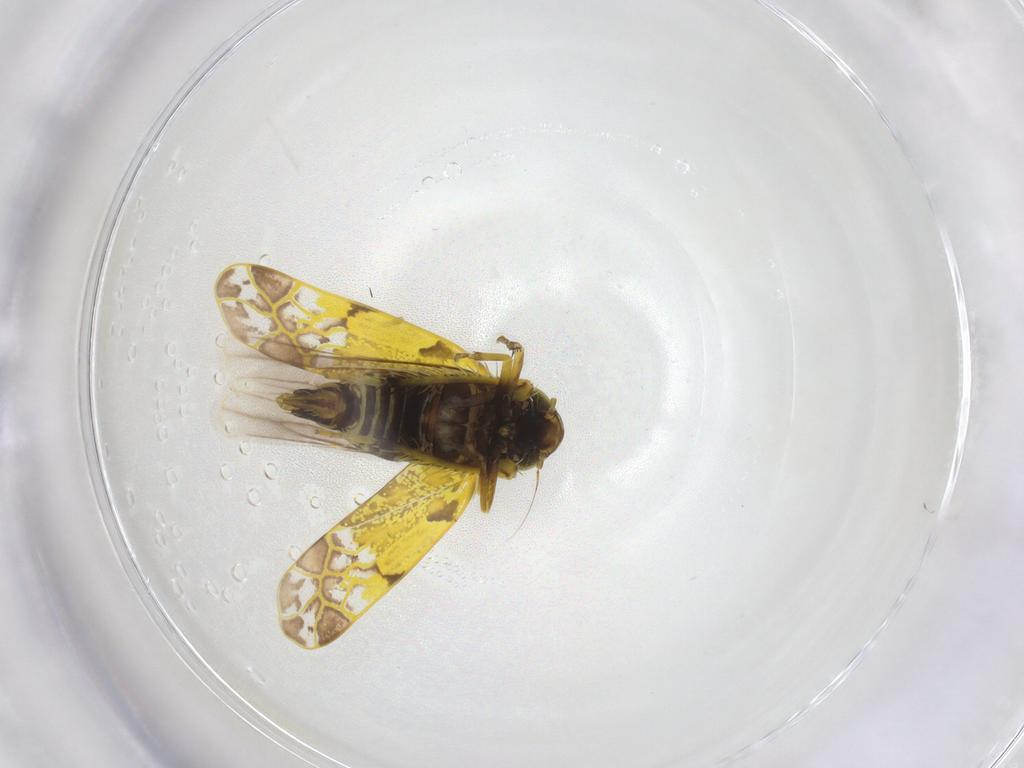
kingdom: Animalia
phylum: Arthropoda
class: Insecta
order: Hemiptera
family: Cicadellidae
